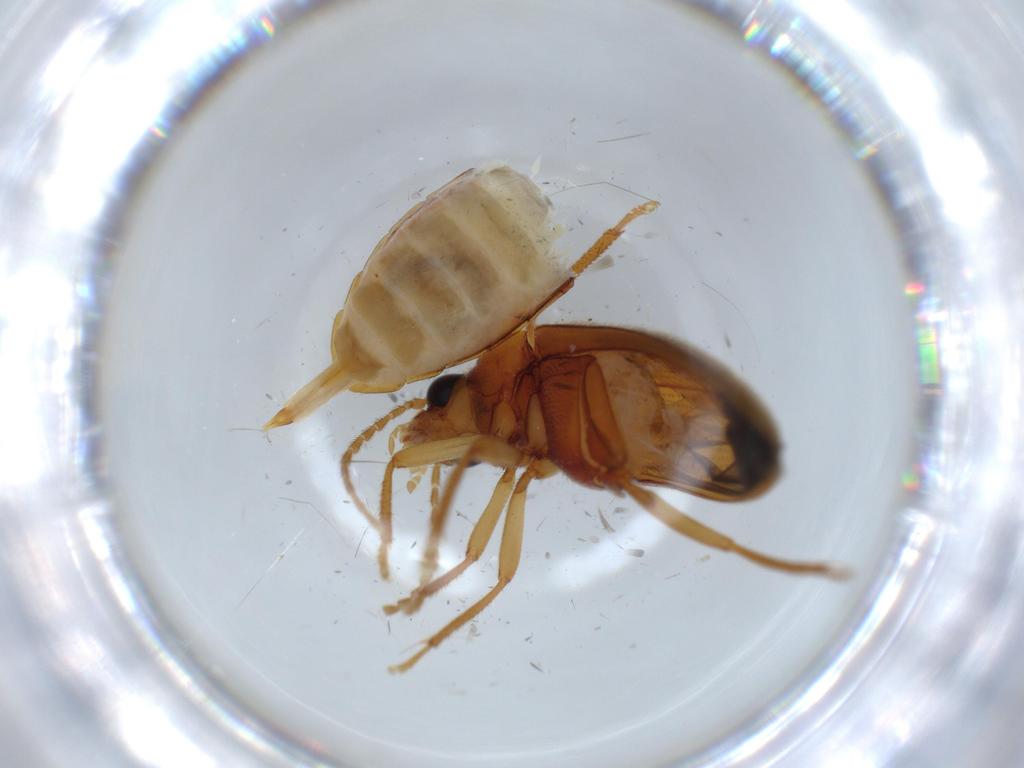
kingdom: Animalia
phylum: Arthropoda
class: Insecta
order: Coleoptera
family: Ptilodactylidae
